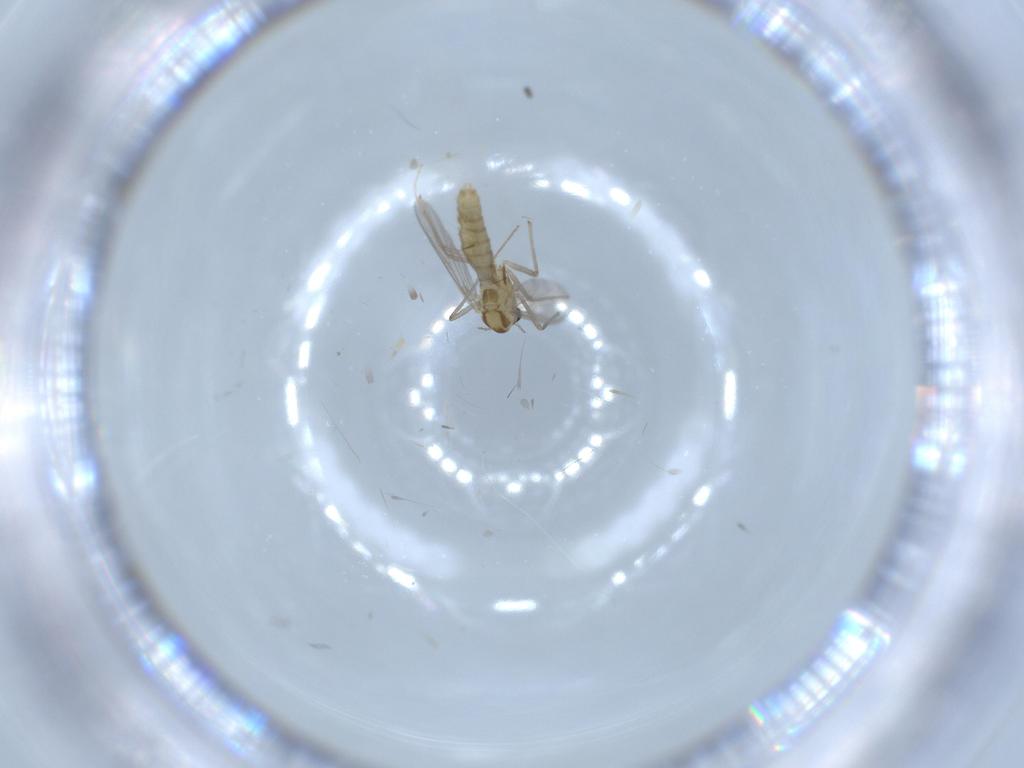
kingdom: Animalia
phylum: Arthropoda
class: Insecta
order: Diptera
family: Chironomidae
